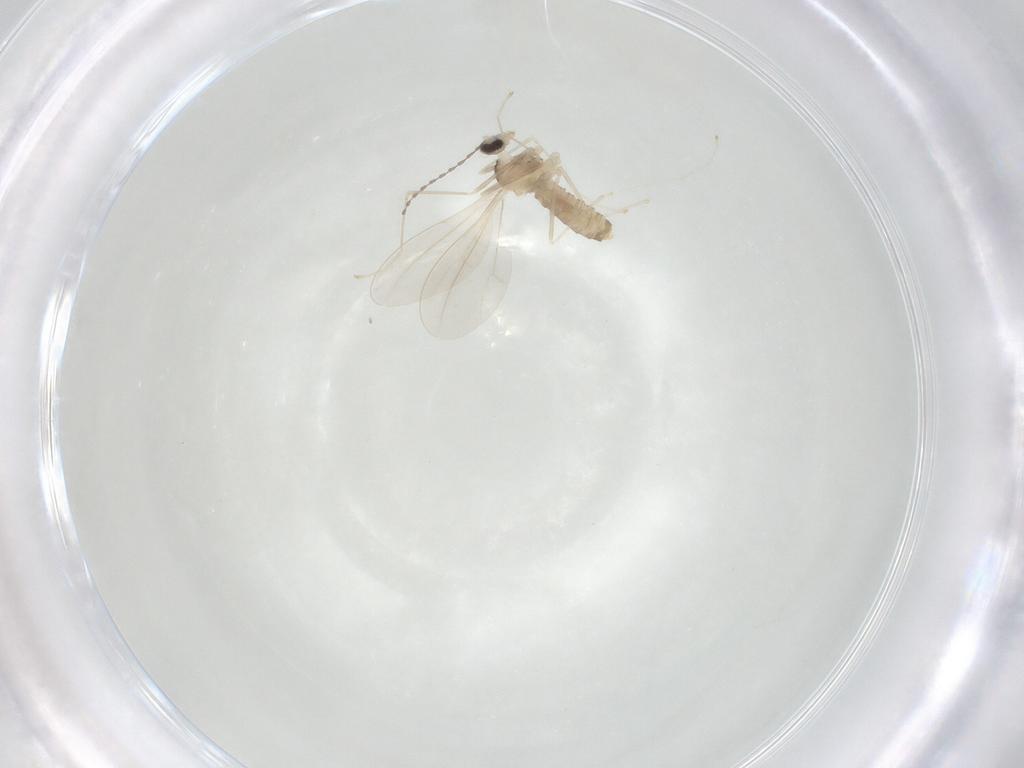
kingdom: Animalia
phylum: Arthropoda
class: Insecta
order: Diptera
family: Cecidomyiidae
